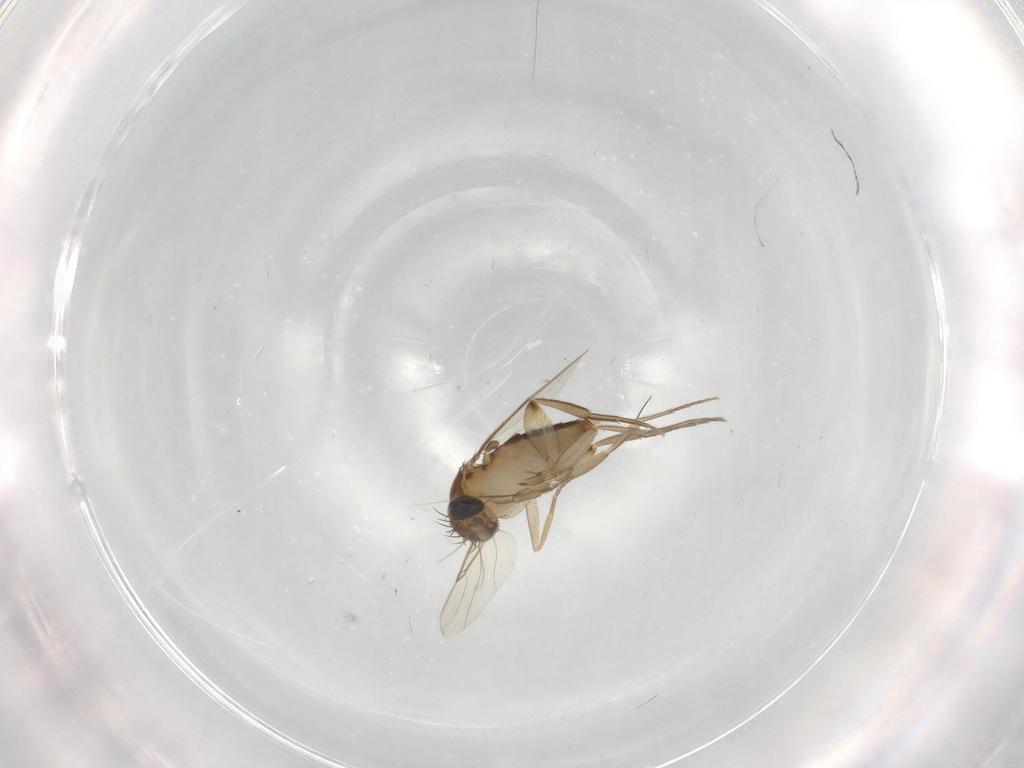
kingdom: Animalia
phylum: Arthropoda
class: Insecta
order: Diptera
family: Phoridae
